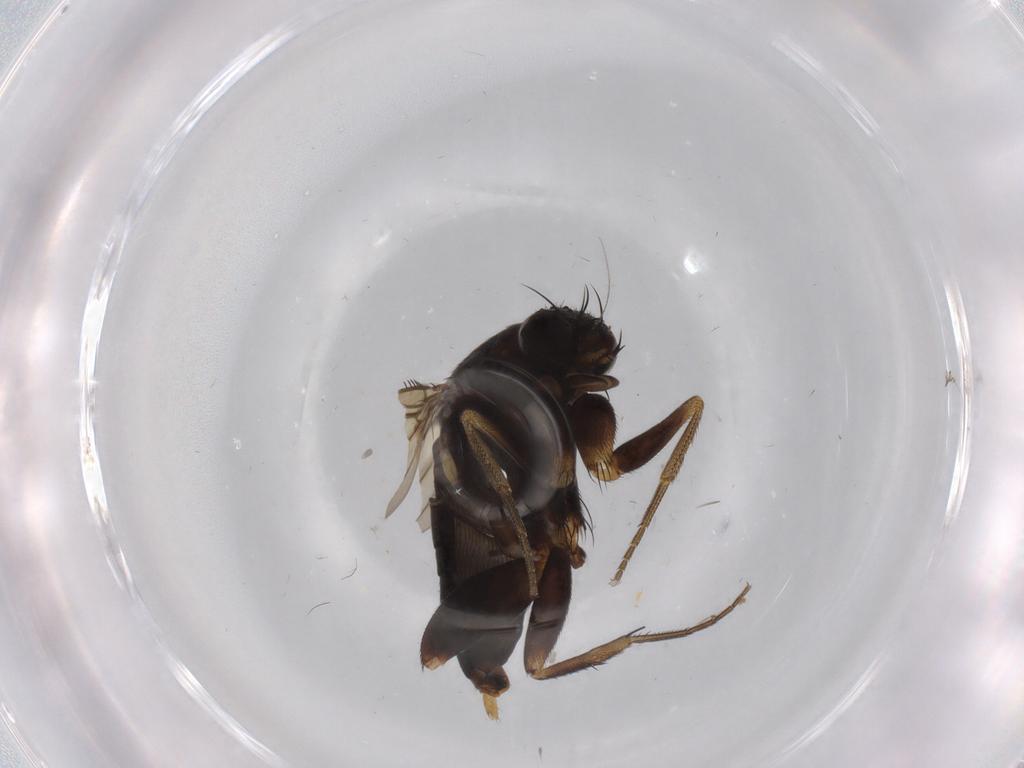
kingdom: Animalia
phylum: Arthropoda
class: Insecta
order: Diptera
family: Phoridae
